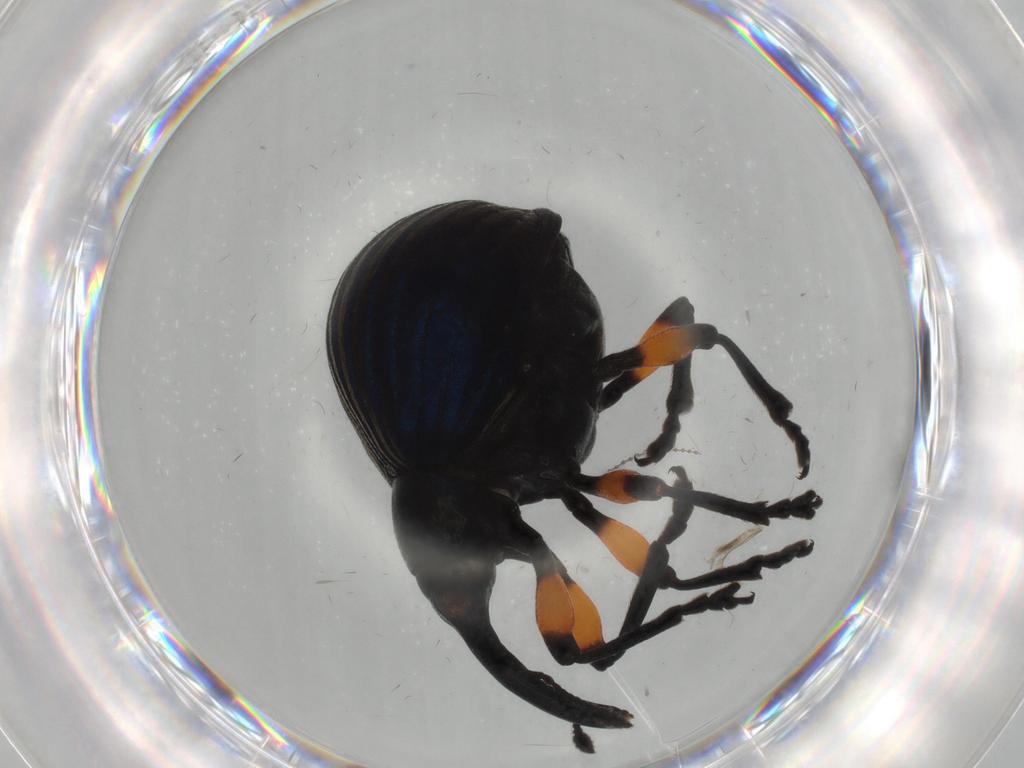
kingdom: Animalia
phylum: Arthropoda
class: Insecta
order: Coleoptera
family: Brentidae
